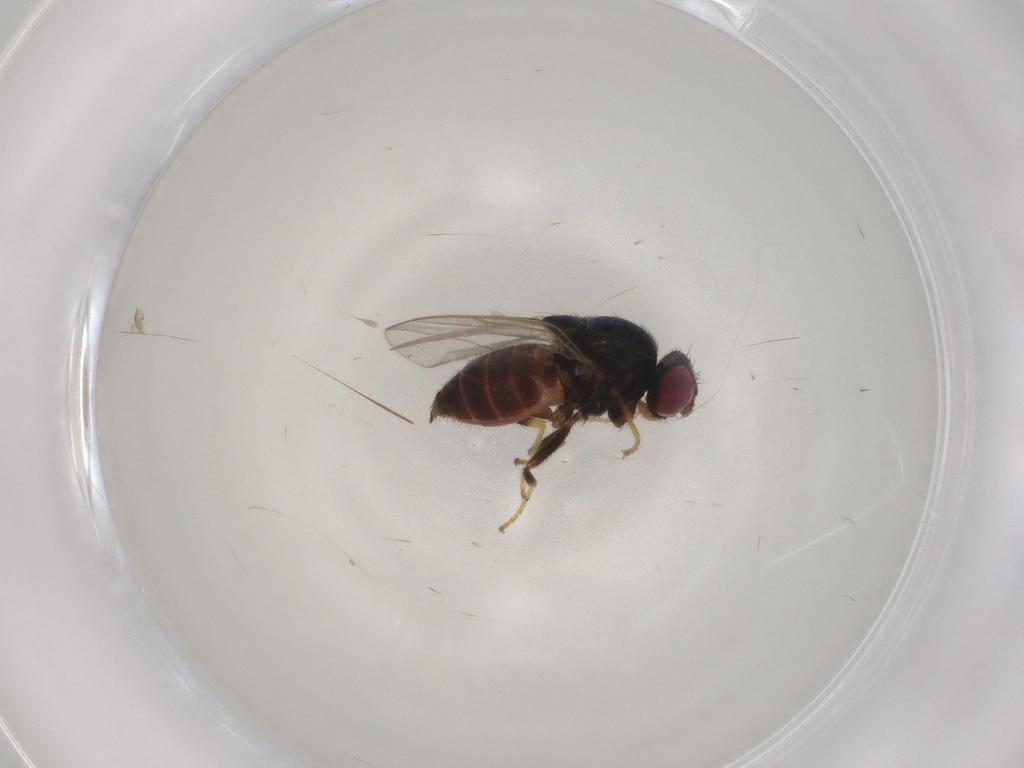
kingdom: Animalia
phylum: Arthropoda
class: Insecta
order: Diptera
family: Chloropidae
